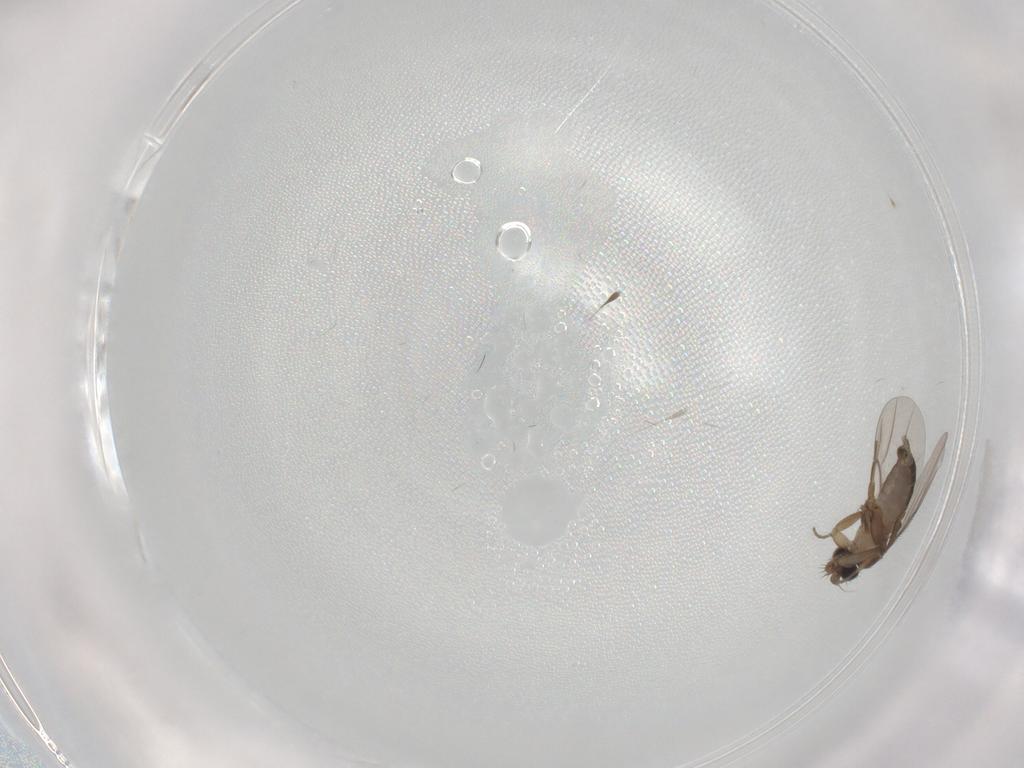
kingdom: Animalia
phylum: Arthropoda
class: Insecta
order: Diptera
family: Phoridae
